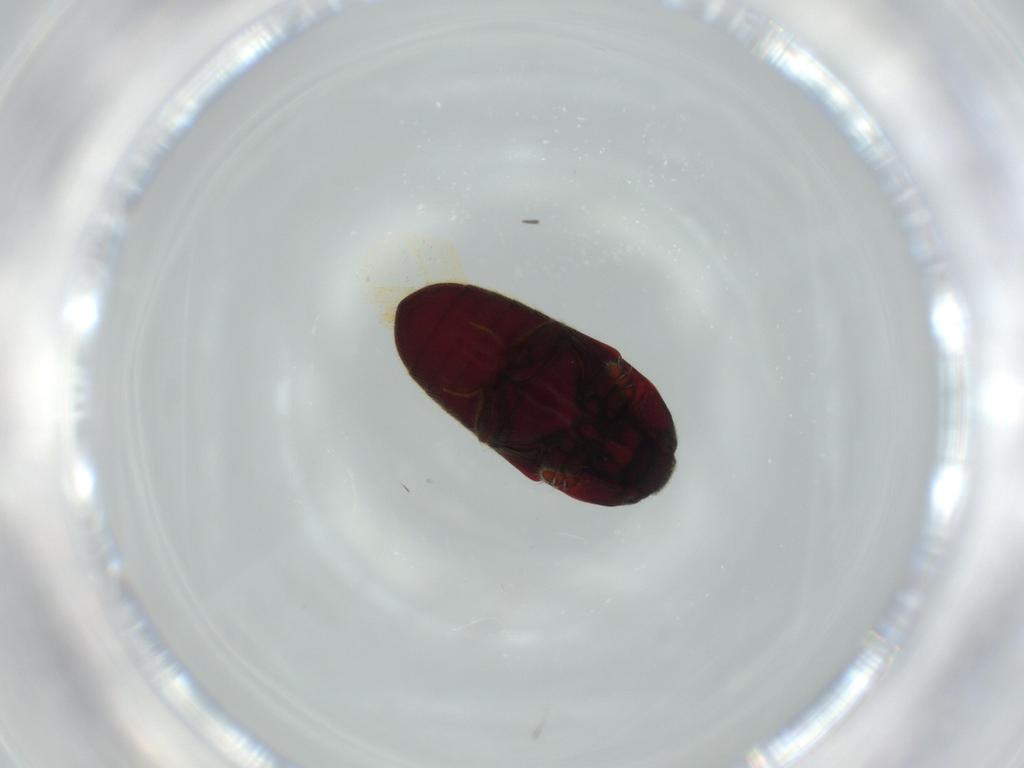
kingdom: Animalia
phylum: Arthropoda
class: Insecta
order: Coleoptera
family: Throscidae
